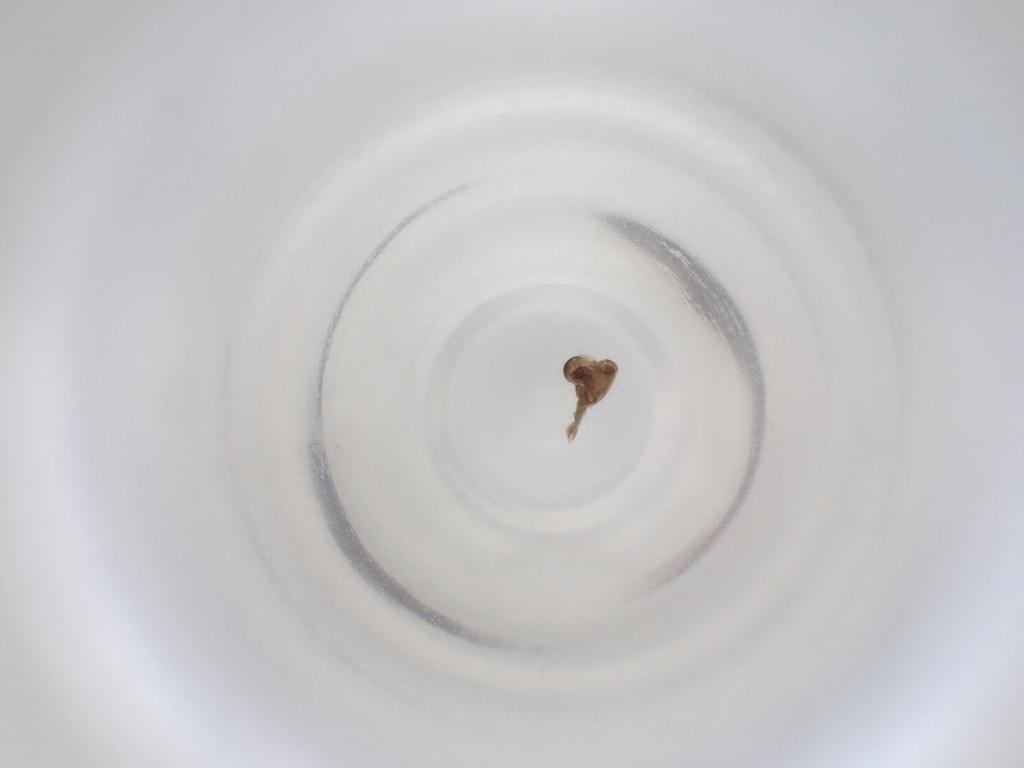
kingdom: Animalia
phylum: Arthropoda
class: Insecta
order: Diptera
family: Cecidomyiidae
